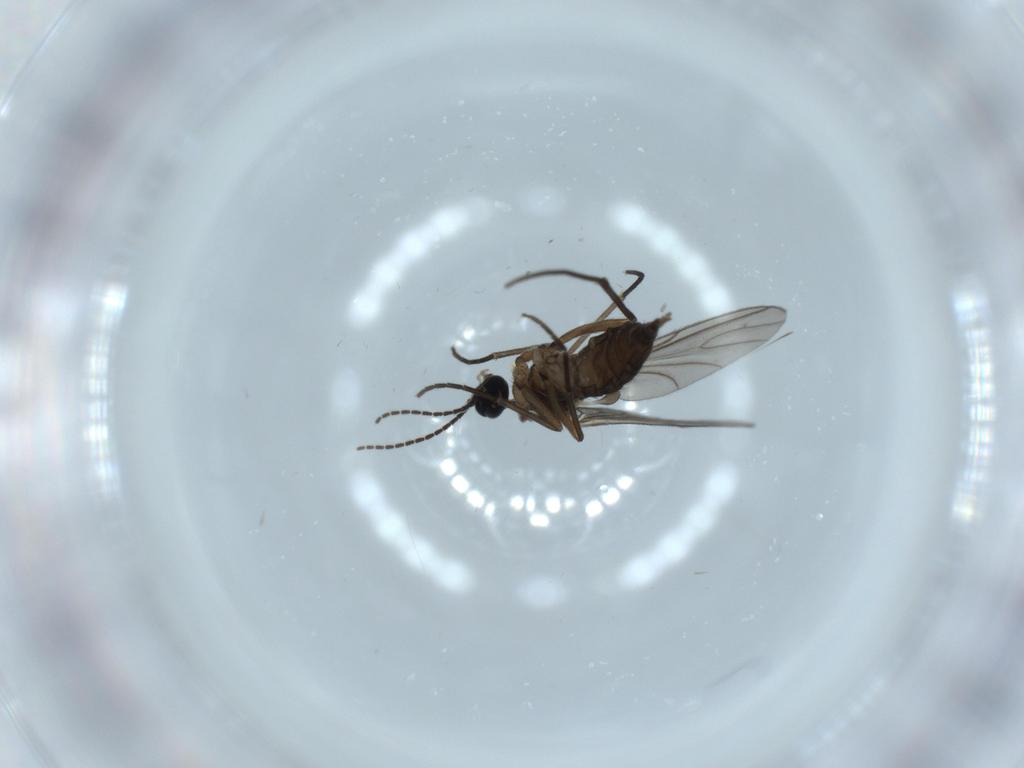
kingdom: Animalia
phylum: Arthropoda
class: Insecta
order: Diptera
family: Sciaridae
